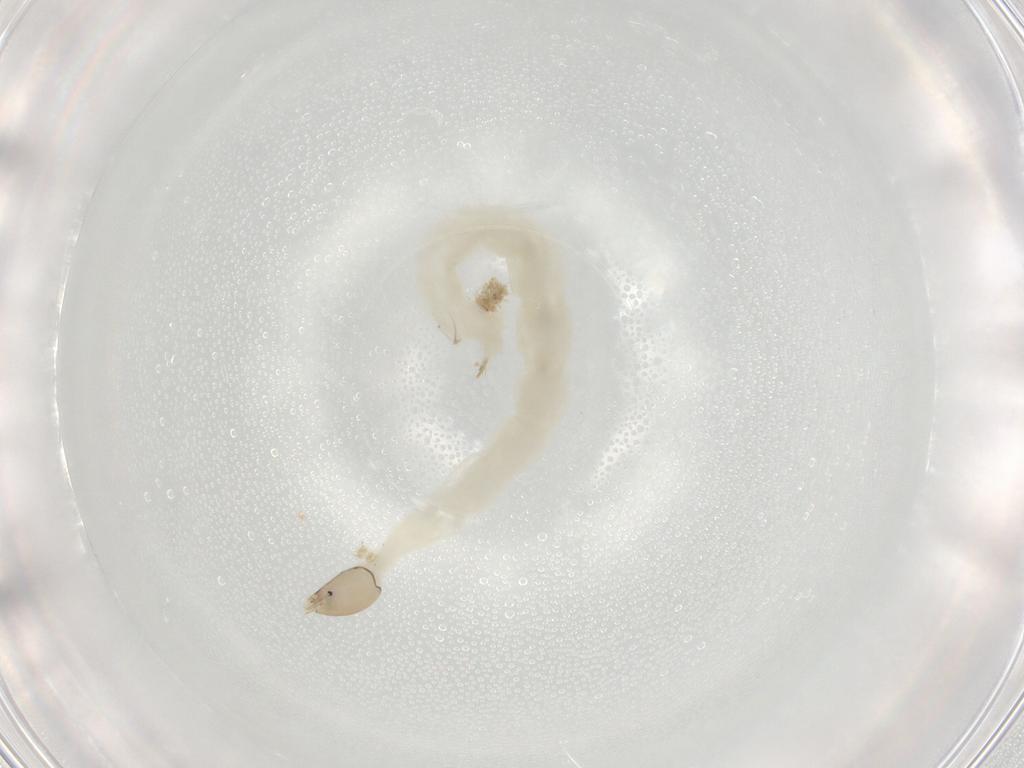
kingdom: Animalia
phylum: Arthropoda
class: Insecta
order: Diptera
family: Chironomidae
